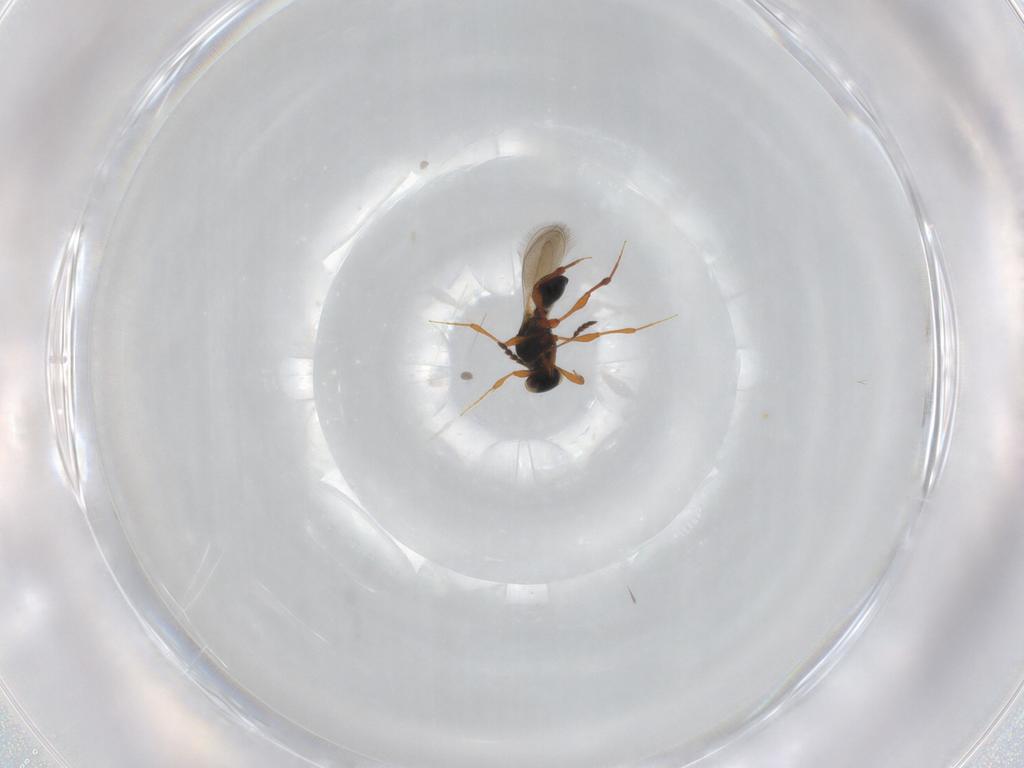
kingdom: Animalia
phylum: Arthropoda
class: Insecta
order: Hymenoptera
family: Platygastridae
